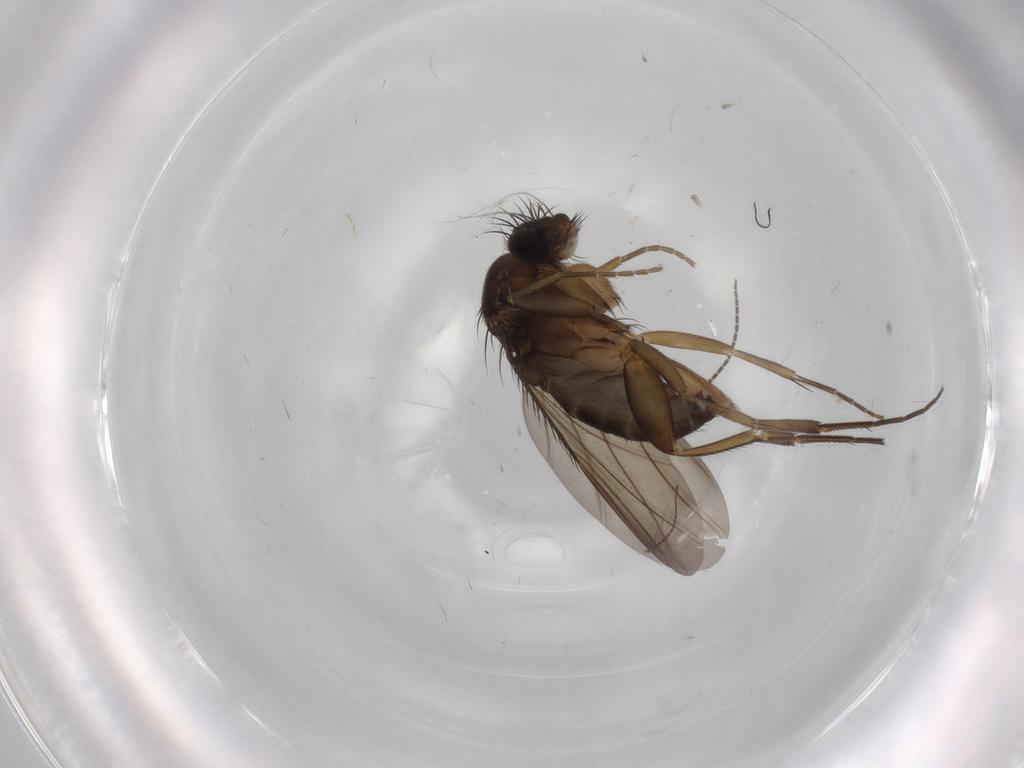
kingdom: Animalia
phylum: Arthropoda
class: Insecta
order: Diptera
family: Phoridae
